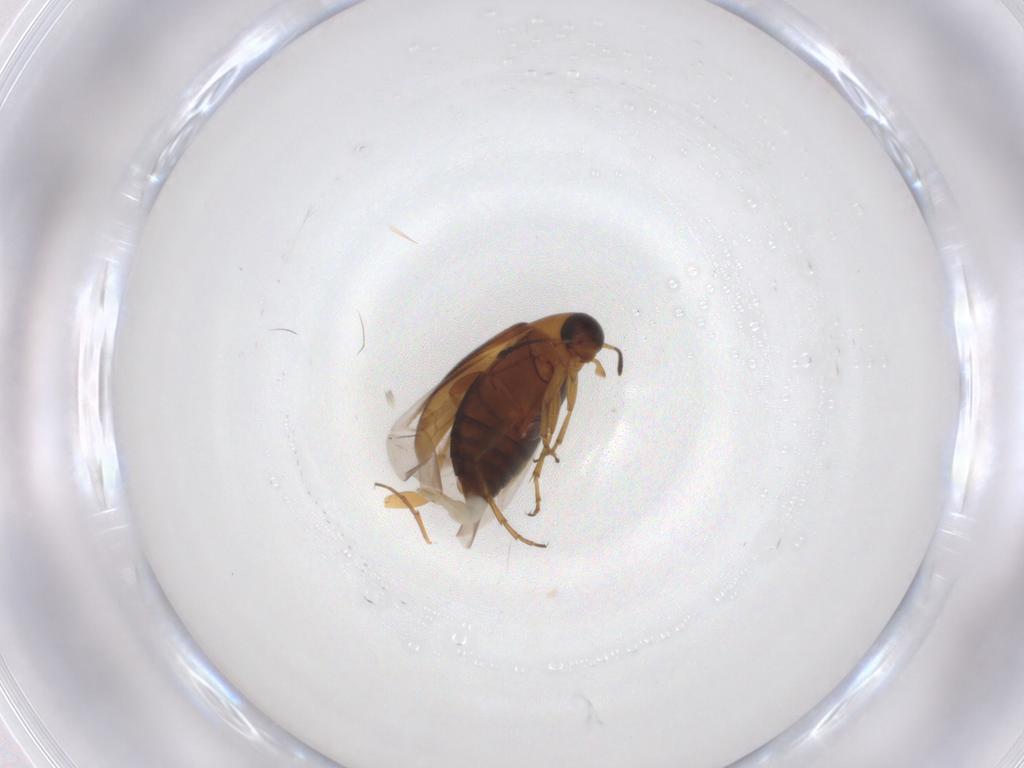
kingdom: Animalia
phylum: Arthropoda
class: Insecta
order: Coleoptera
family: Scraptiidae
